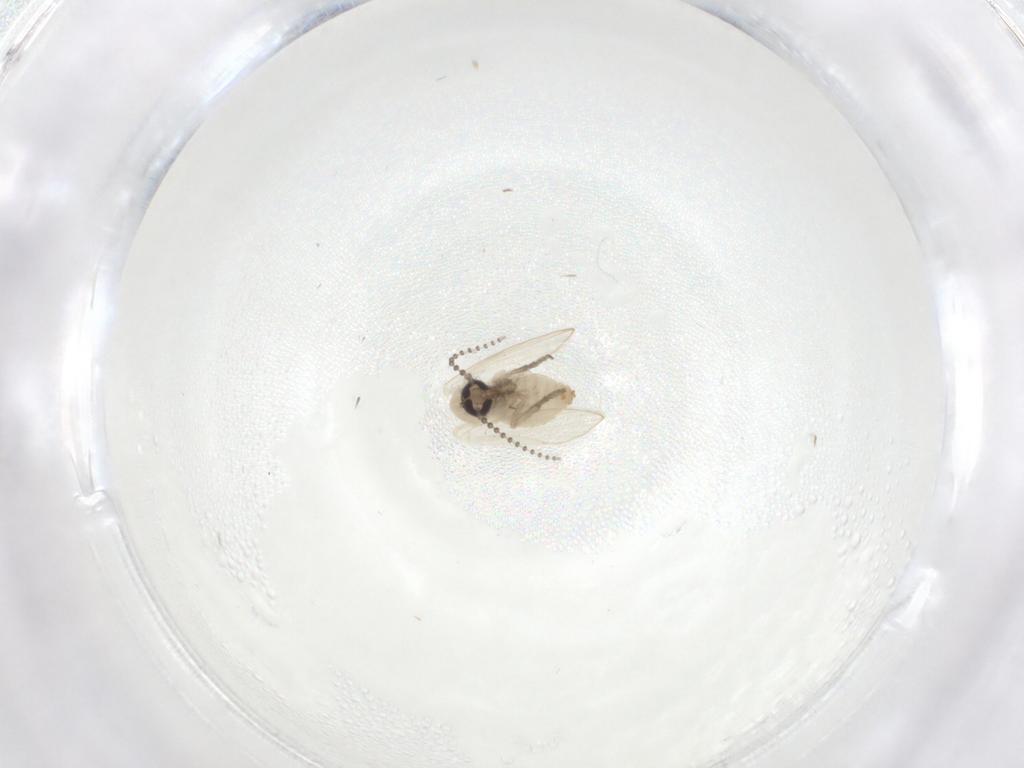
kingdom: Animalia
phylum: Arthropoda
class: Insecta
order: Diptera
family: Psychodidae
